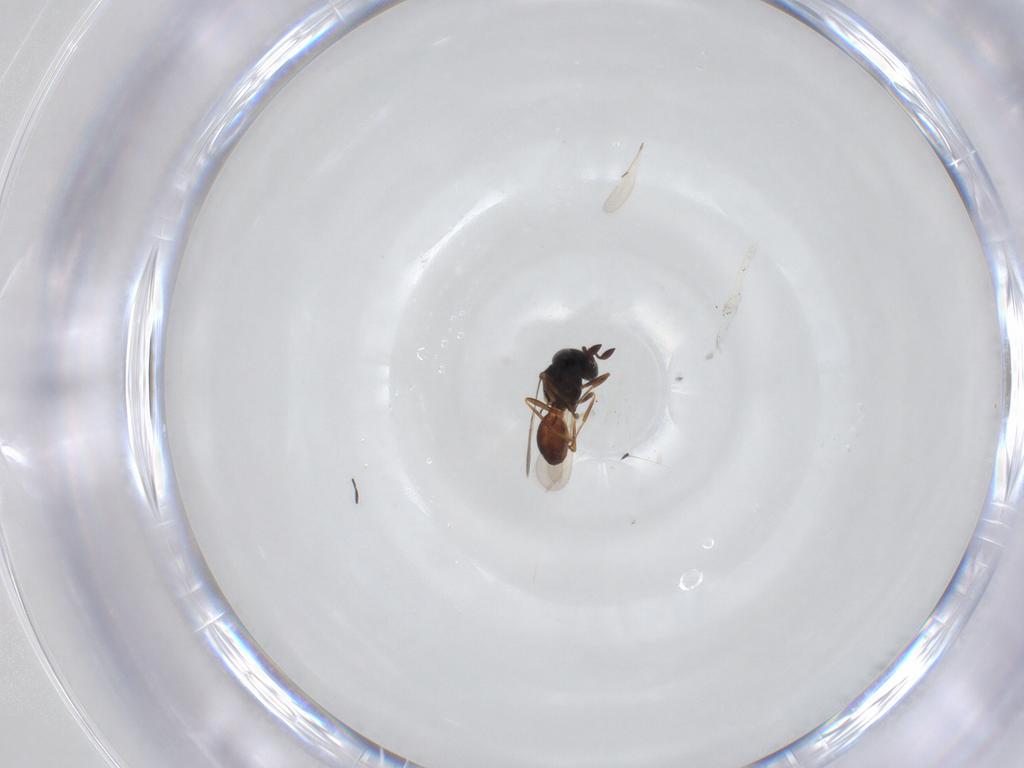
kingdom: Animalia
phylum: Arthropoda
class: Insecta
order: Hymenoptera
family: Scelionidae
